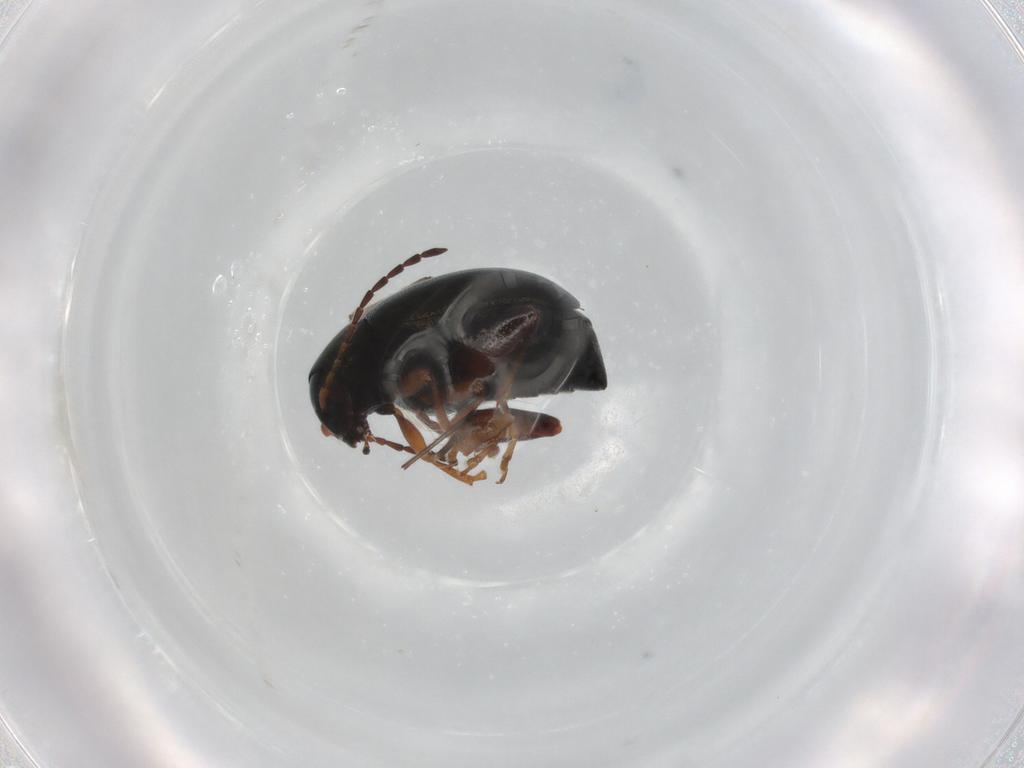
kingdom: Animalia
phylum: Arthropoda
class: Insecta
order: Coleoptera
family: Chrysomelidae
